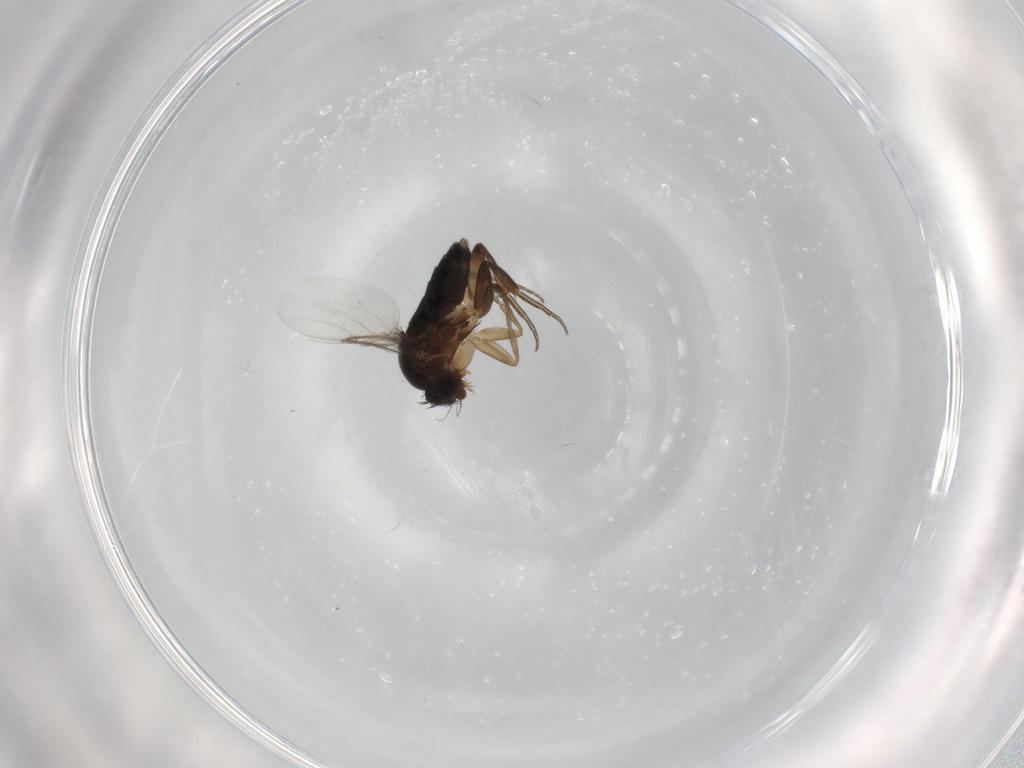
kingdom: Animalia
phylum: Arthropoda
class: Insecta
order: Diptera
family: Phoridae
